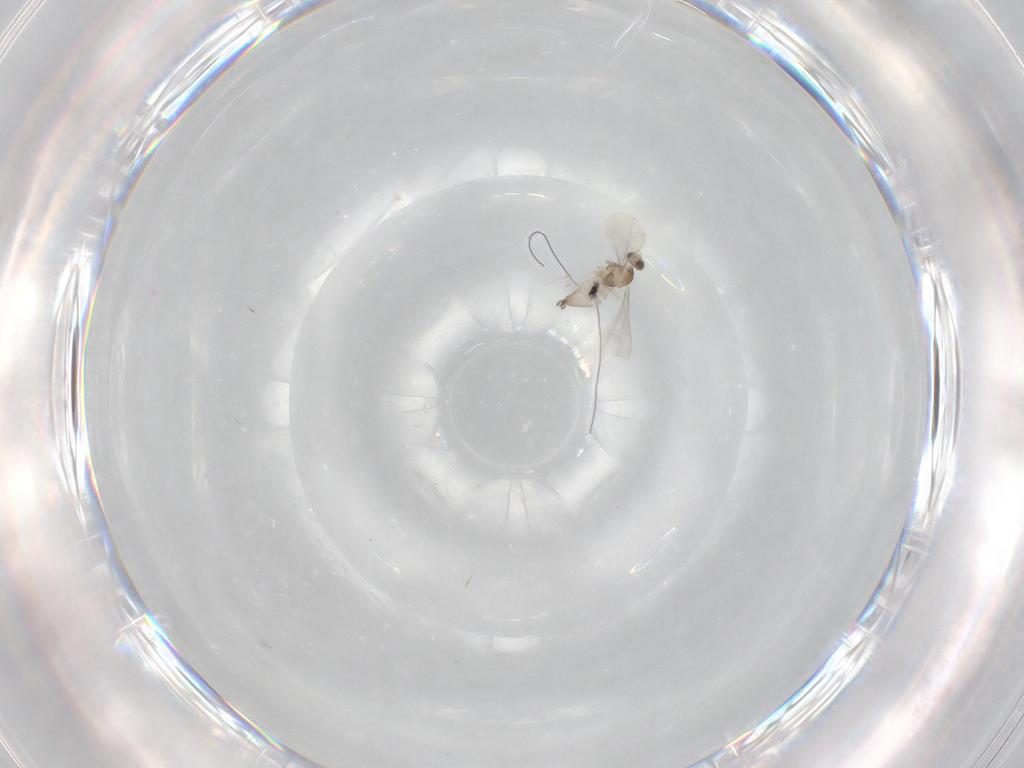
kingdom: Animalia
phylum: Arthropoda
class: Insecta
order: Diptera
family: Cecidomyiidae
